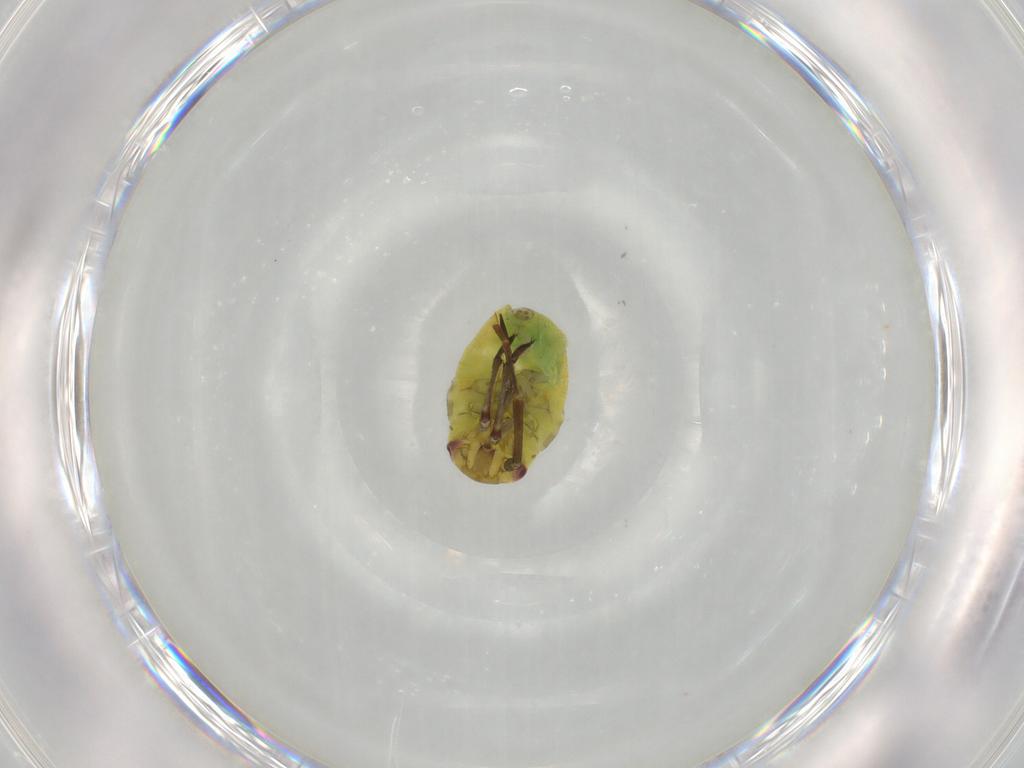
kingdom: Animalia
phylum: Arthropoda
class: Insecta
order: Hemiptera
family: Miridae
